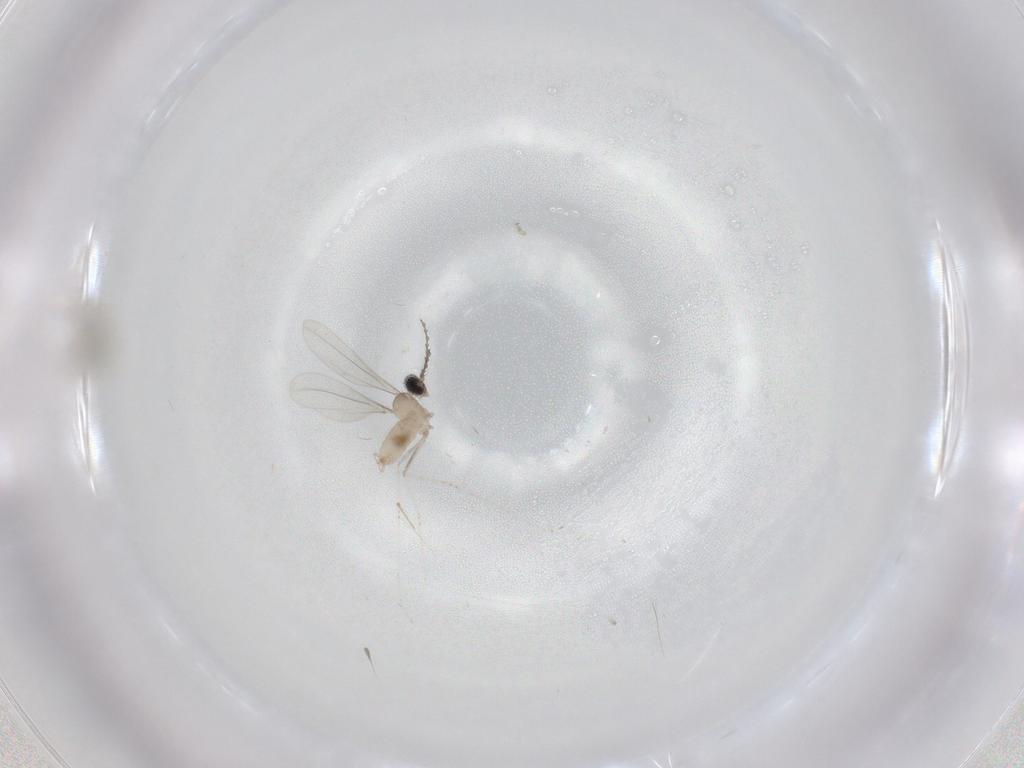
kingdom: Animalia
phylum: Arthropoda
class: Insecta
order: Diptera
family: Cecidomyiidae
